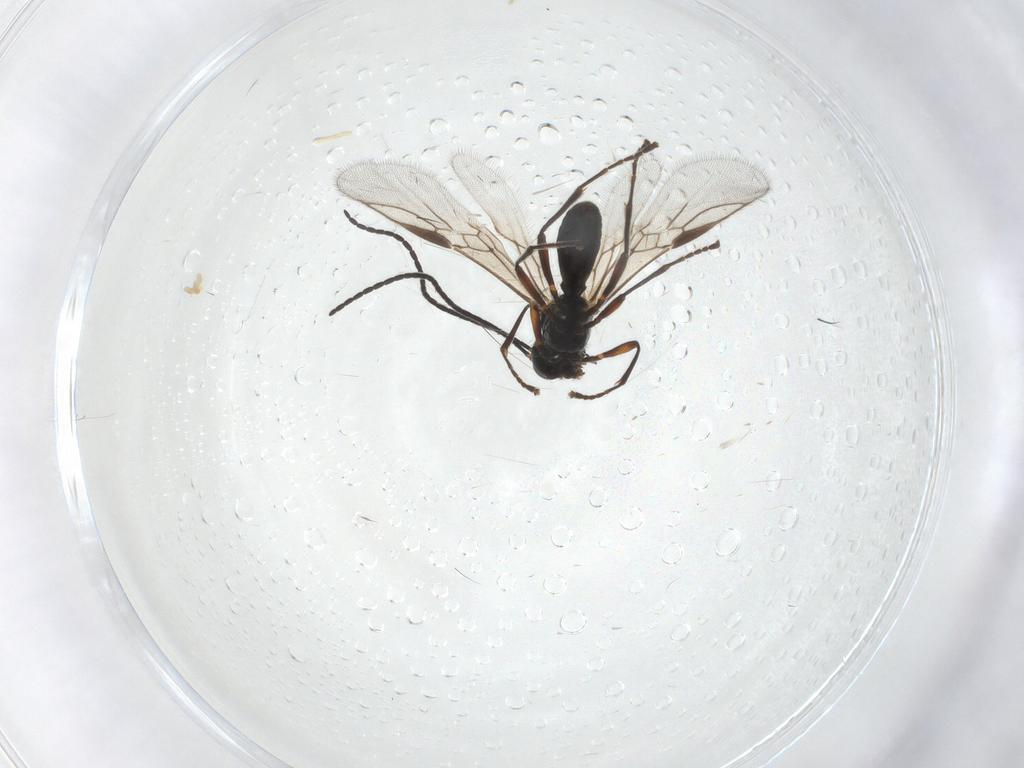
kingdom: Animalia
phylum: Arthropoda
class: Insecta
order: Hymenoptera
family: Braconidae
